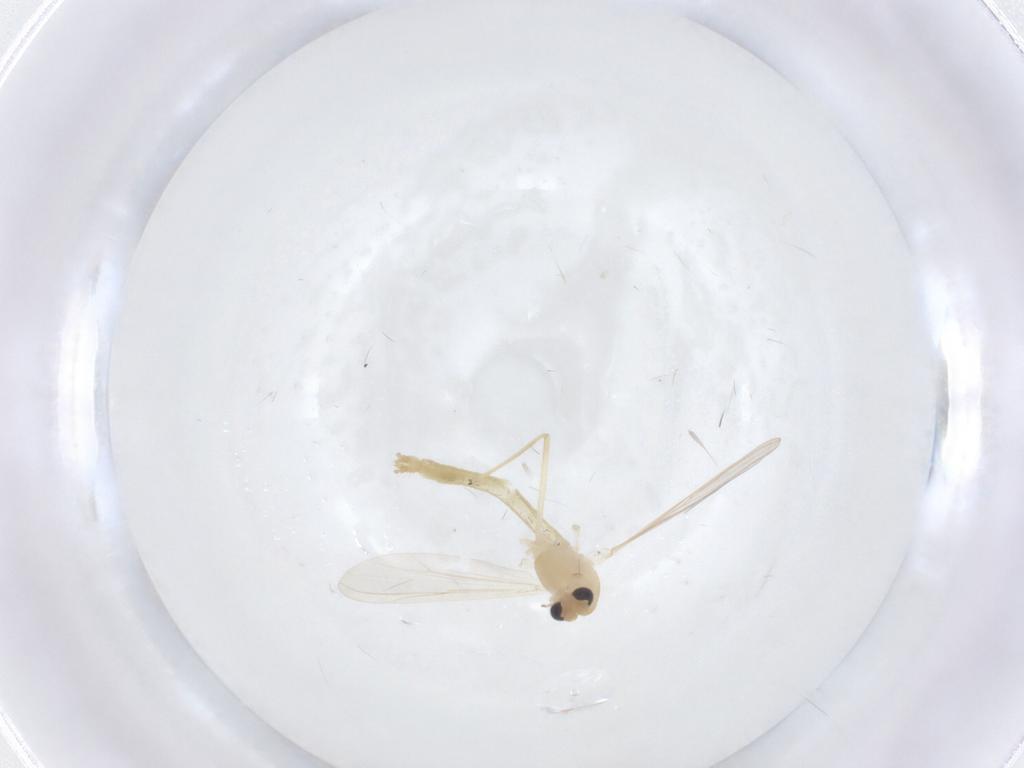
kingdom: Animalia
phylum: Arthropoda
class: Insecta
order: Diptera
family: Chironomidae
